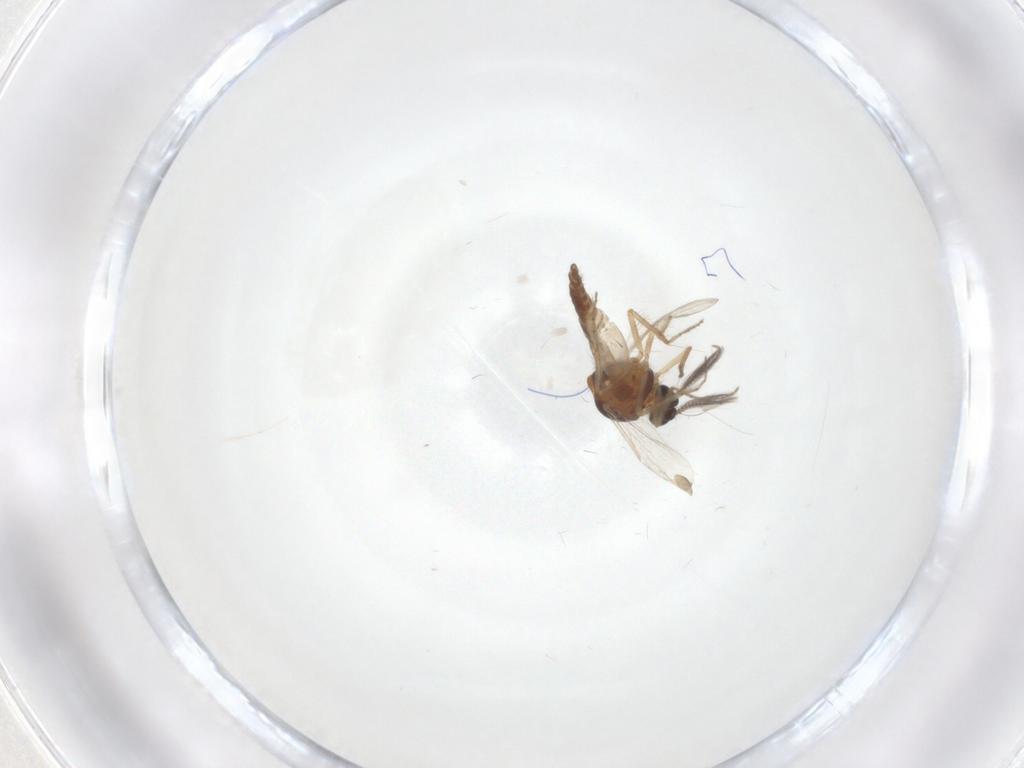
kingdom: Animalia
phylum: Arthropoda
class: Insecta
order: Diptera
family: Ceratopogonidae
